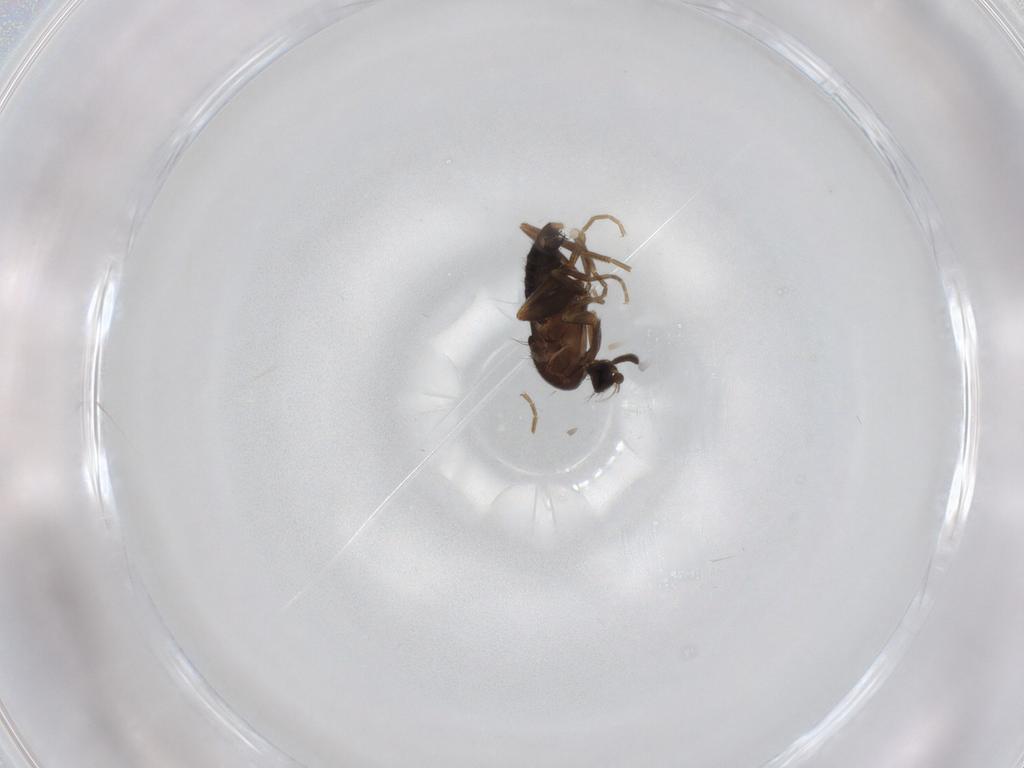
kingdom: Animalia
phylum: Arthropoda
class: Insecta
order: Diptera
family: Phoridae
